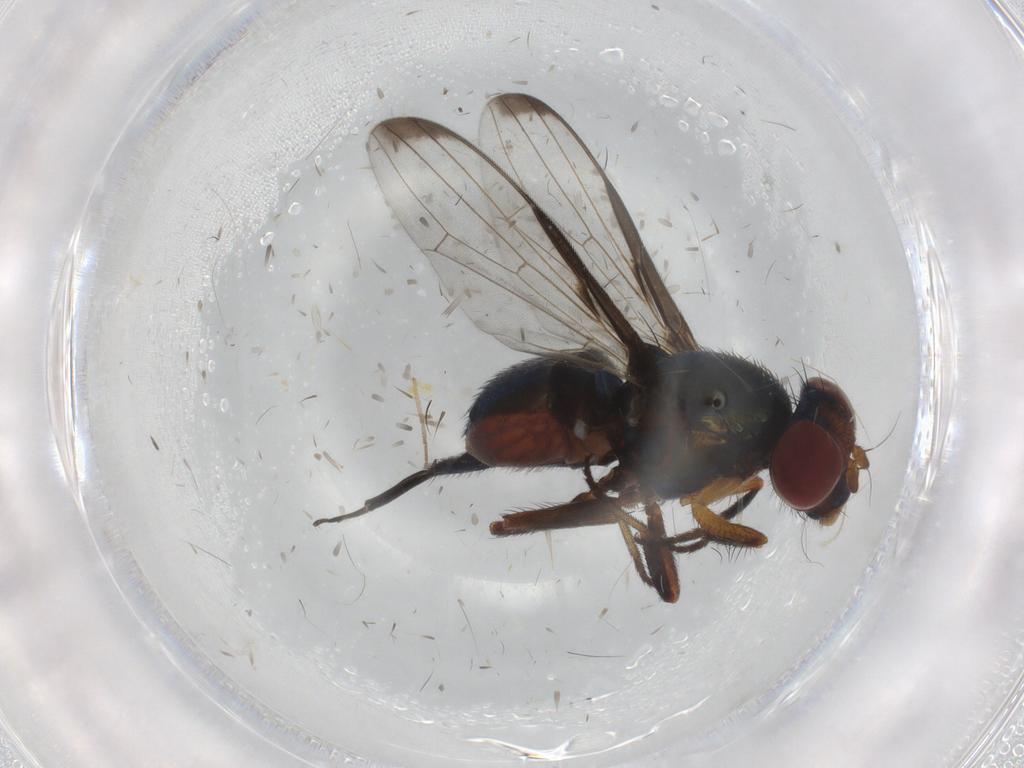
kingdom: Animalia
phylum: Arthropoda
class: Insecta
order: Diptera
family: Ulidiidae
